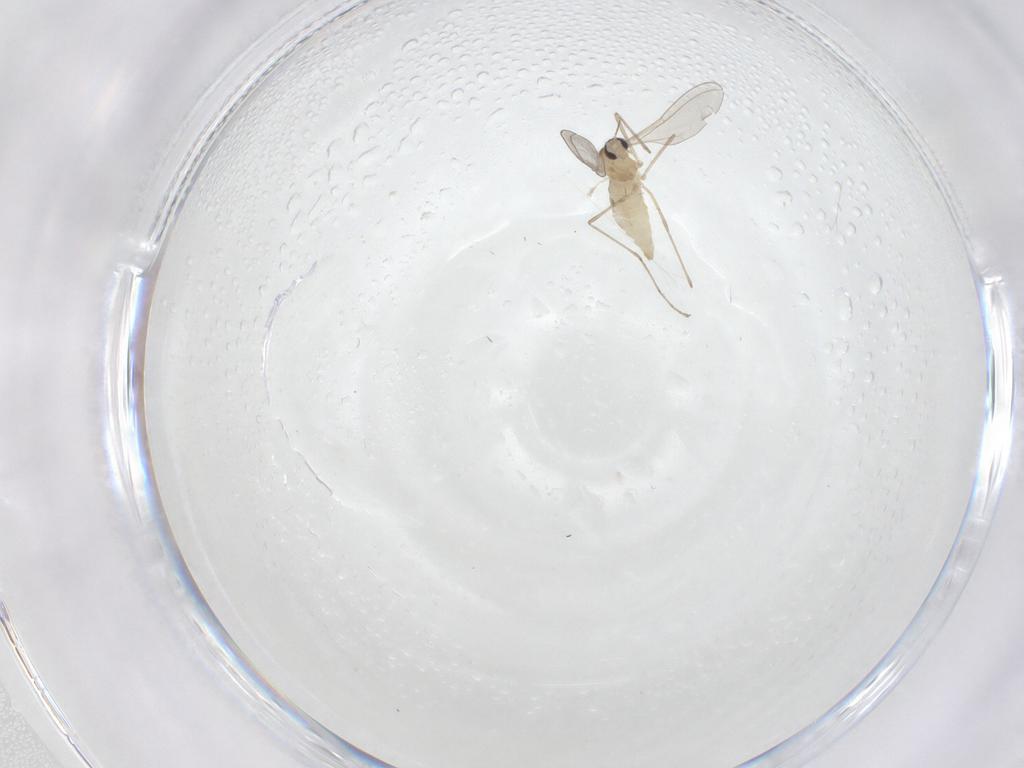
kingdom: Animalia
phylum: Arthropoda
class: Insecta
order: Diptera
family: Cecidomyiidae
